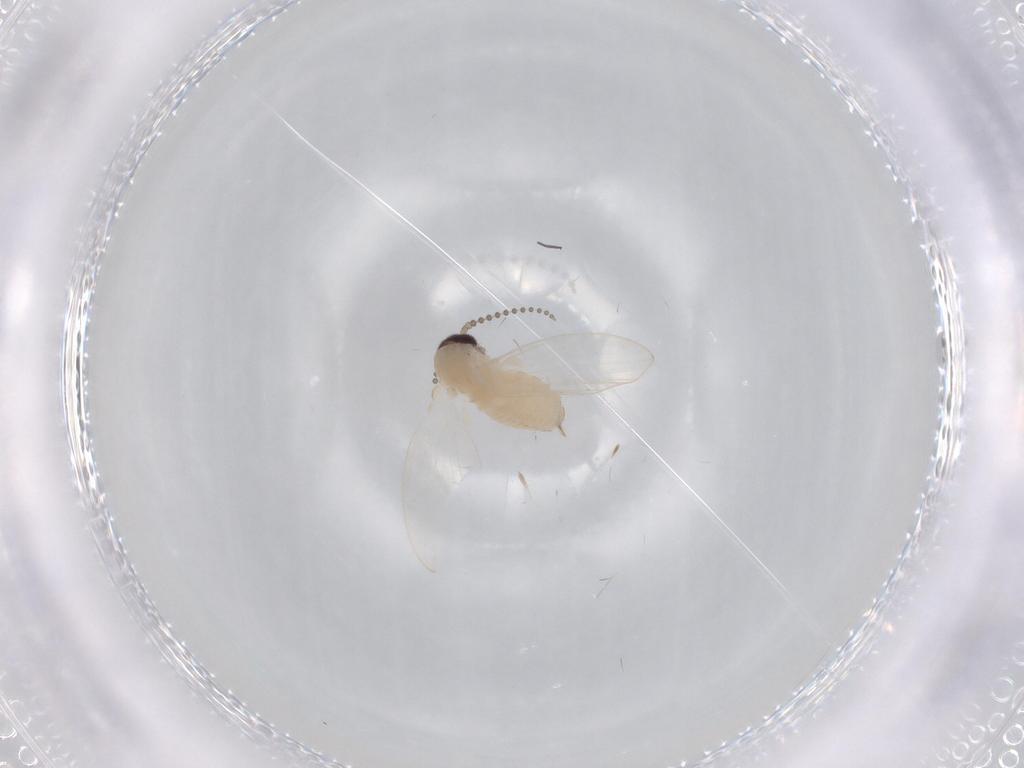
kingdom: Animalia
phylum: Arthropoda
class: Insecta
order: Diptera
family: Psychodidae
